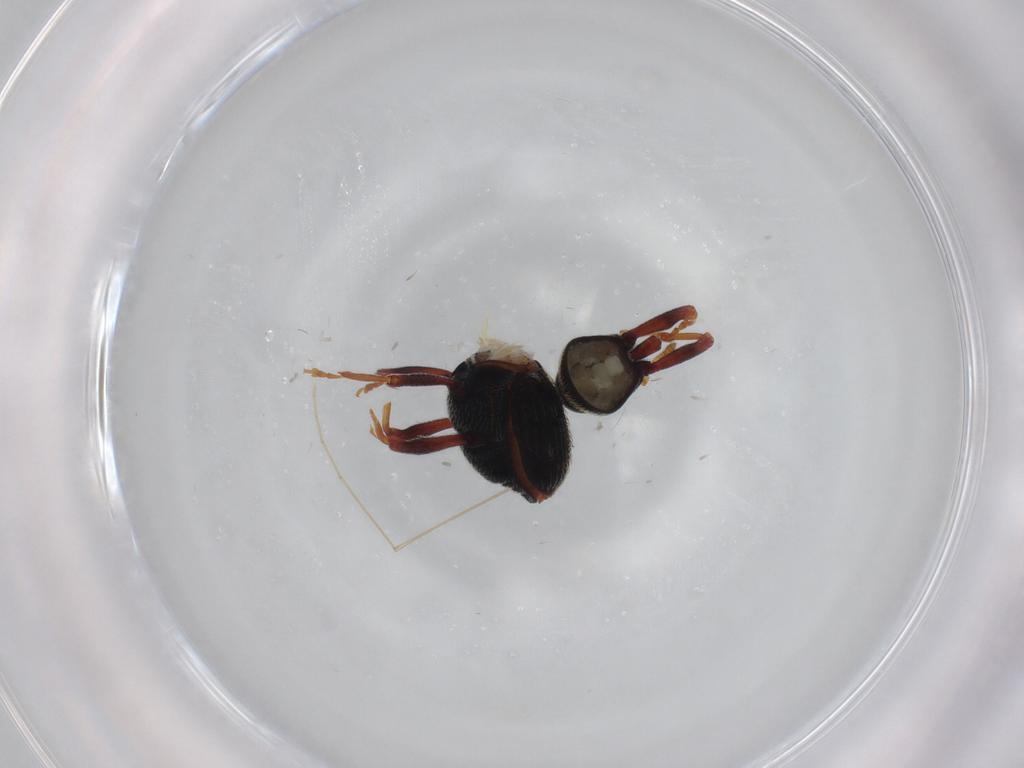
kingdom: Animalia
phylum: Arthropoda
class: Insecta
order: Coleoptera
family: Curculionidae
